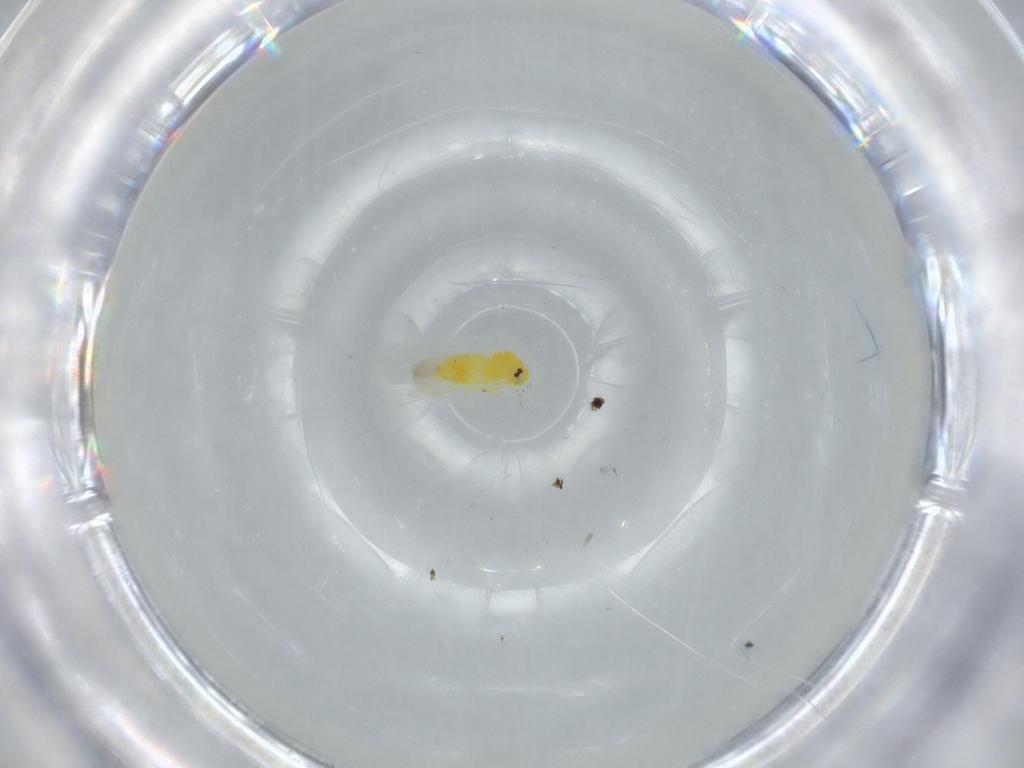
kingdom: Animalia
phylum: Arthropoda
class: Insecta
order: Hemiptera
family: Aleyrodidae
